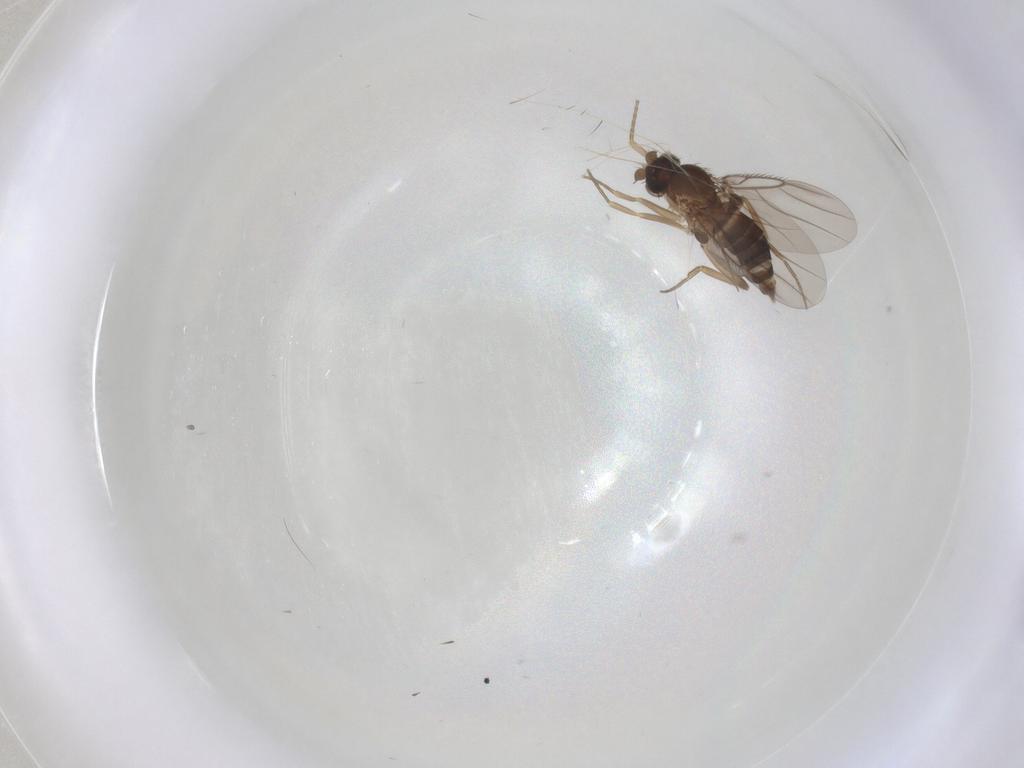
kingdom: Animalia
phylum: Arthropoda
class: Insecta
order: Diptera
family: Phoridae
